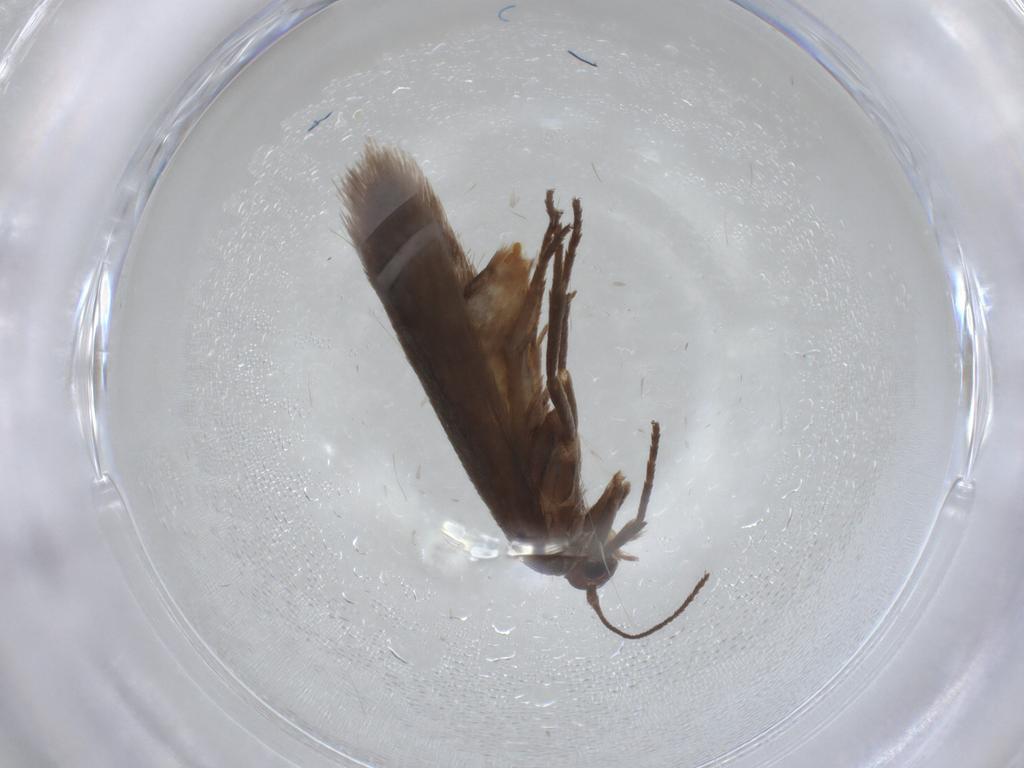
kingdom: Animalia
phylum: Arthropoda
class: Insecta
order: Lepidoptera
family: Limacodidae
